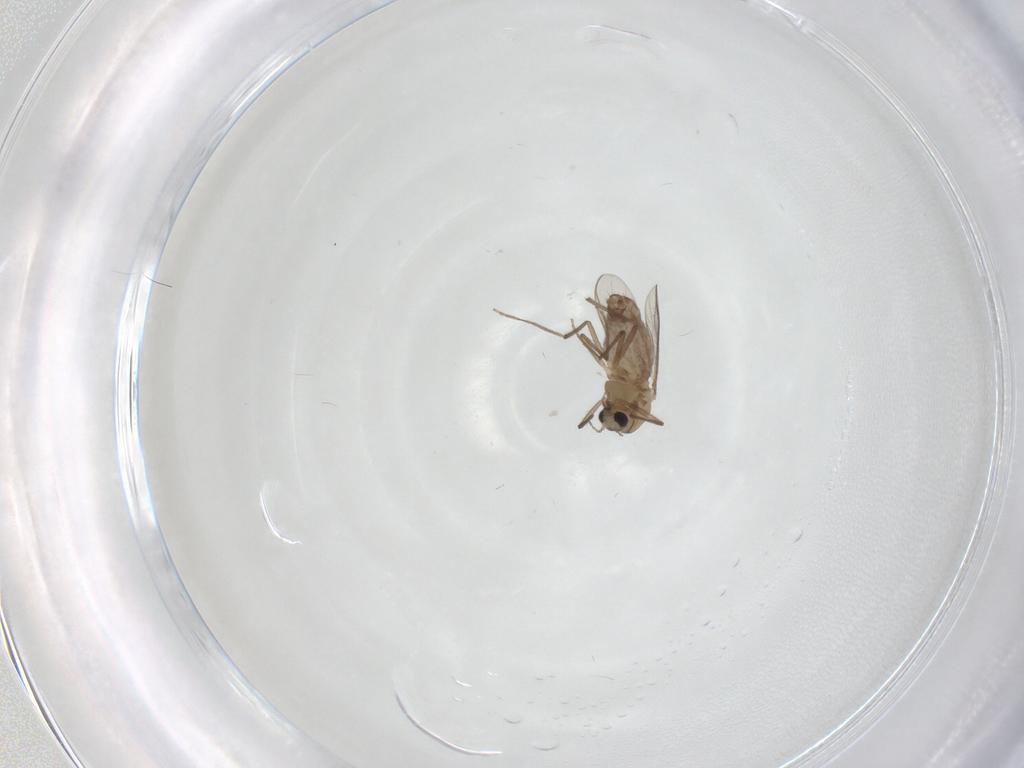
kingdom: Animalia
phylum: Arthropoda
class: Insecta
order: Diptera
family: Chironomidae
